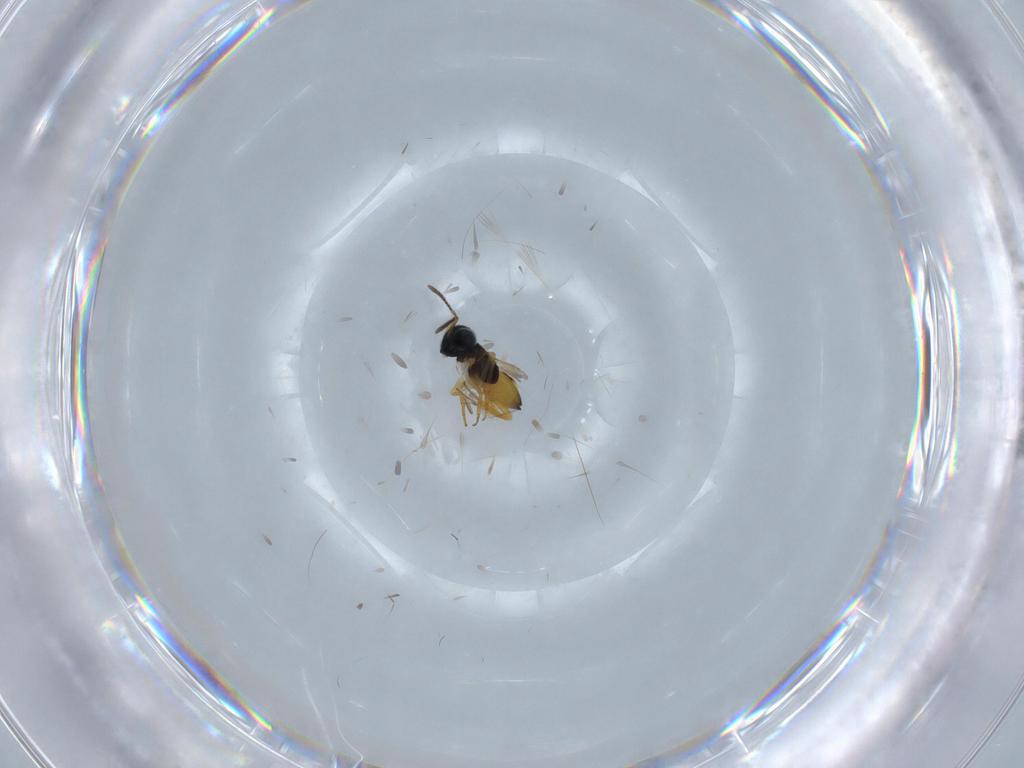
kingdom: Animalia
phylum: Arthropoda
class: Insecta
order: Hymenoptera
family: Encyrtidae
